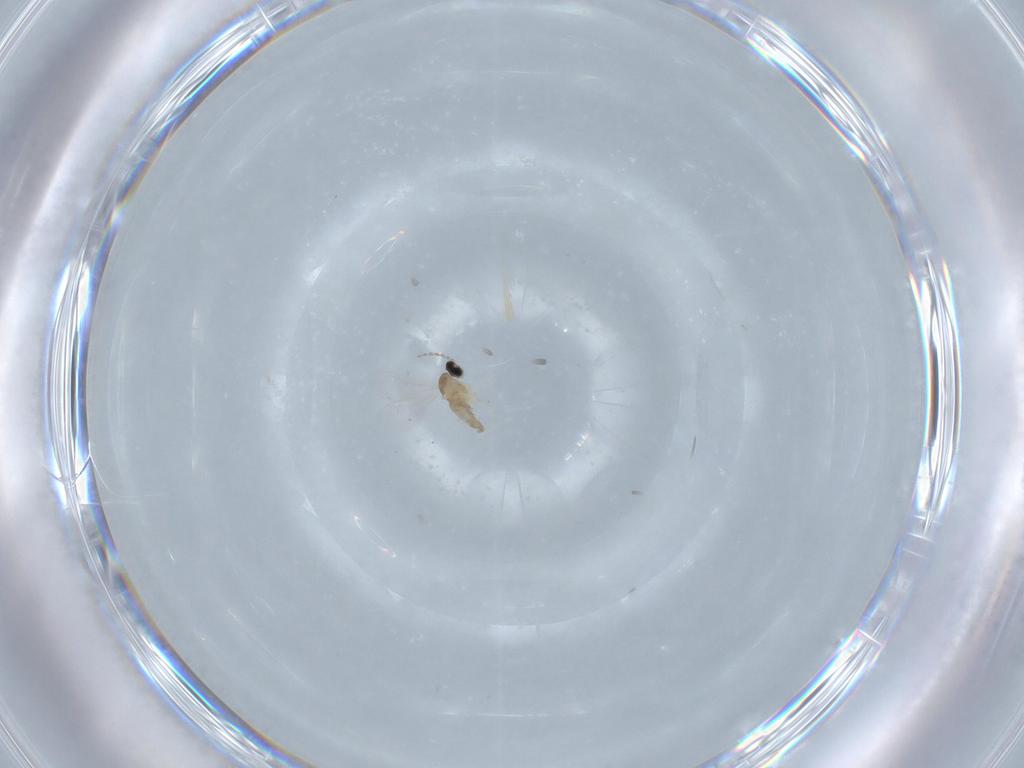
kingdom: Animalia
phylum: Arthropoda
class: Insecta
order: Diptera
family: Cecidomyiidae
